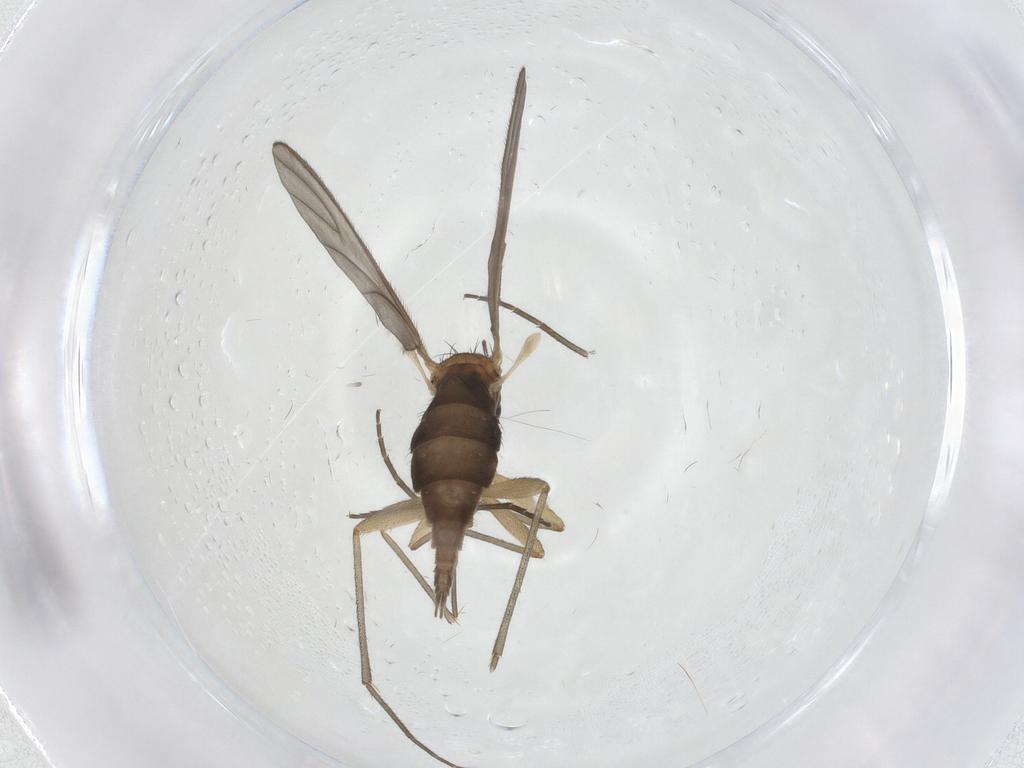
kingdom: Animalia
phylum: Arthropoda
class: Insecta
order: Diptera
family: Sciaridae
